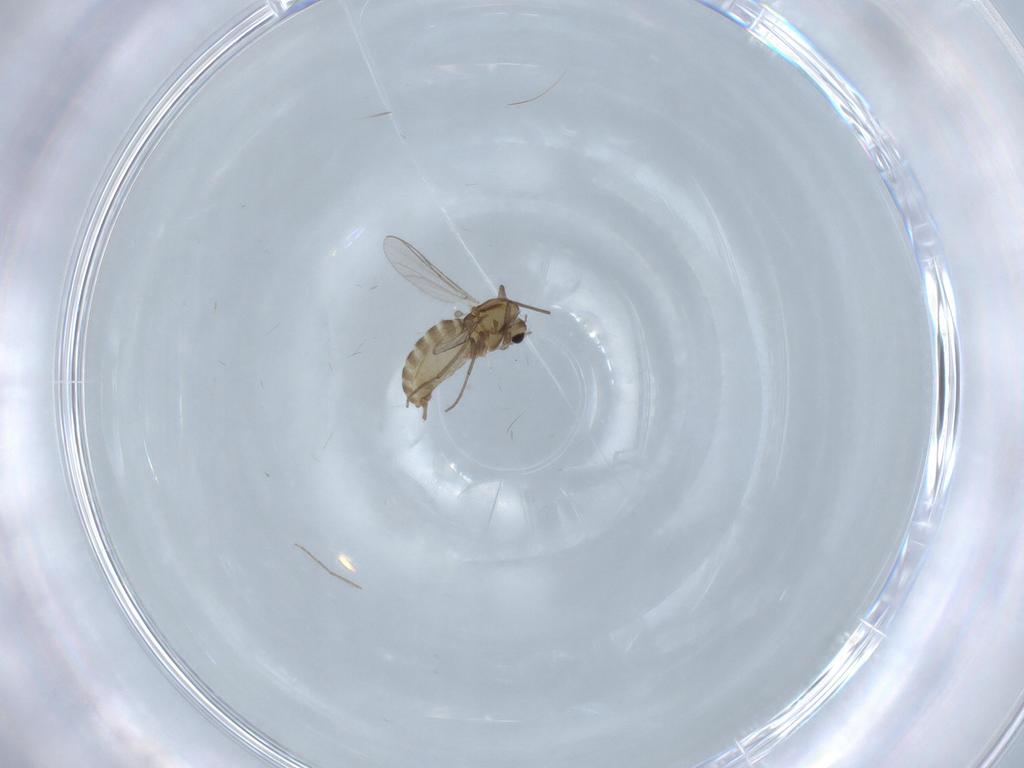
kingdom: Animalia
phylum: Arthropoda
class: Insecta
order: Diptera
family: Chironomidae
